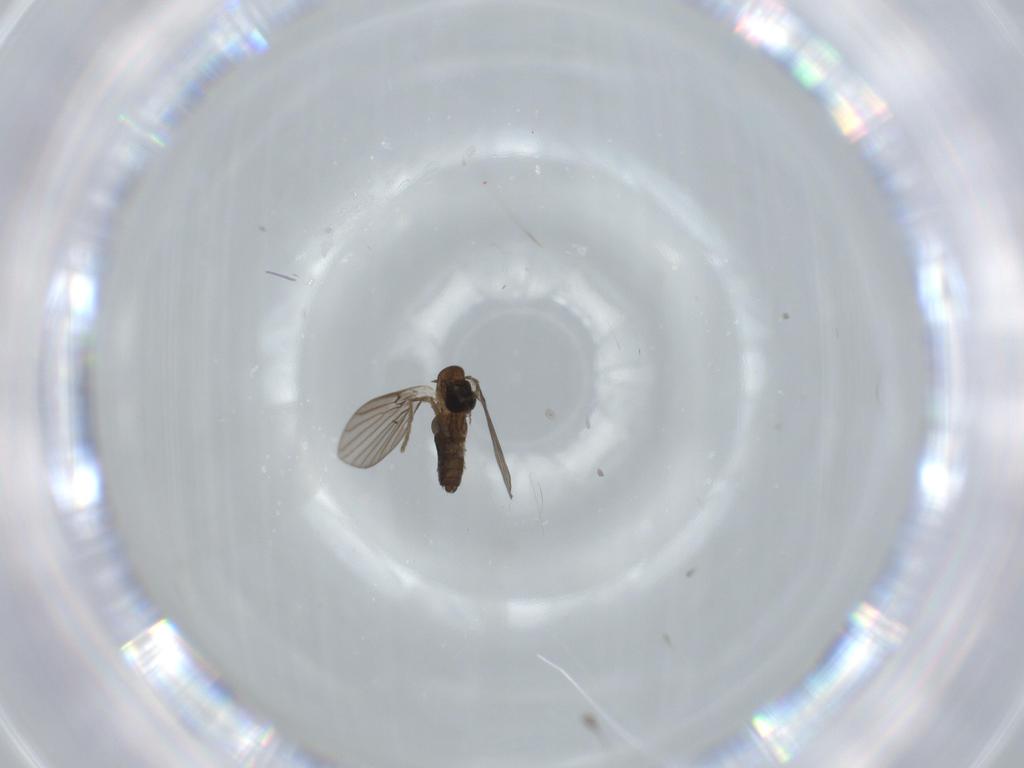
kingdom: Animalia
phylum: Arthropoda
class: Insecta
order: Diptera
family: Psychodidae
